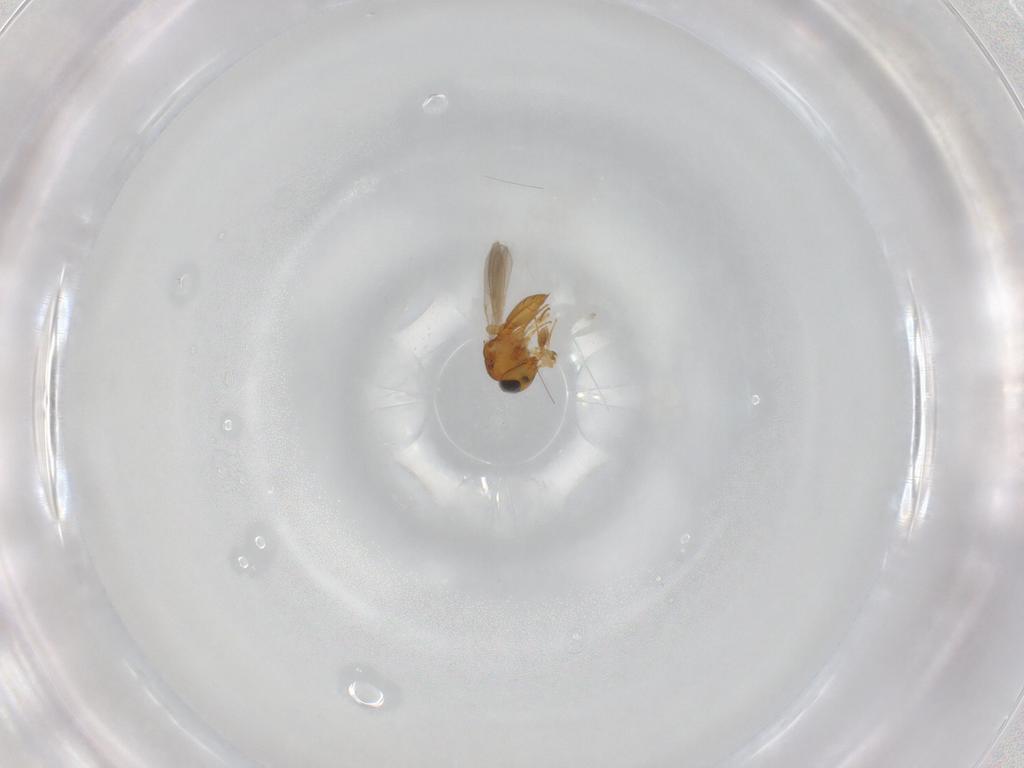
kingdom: Animalia
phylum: Arthropoda
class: Insecta
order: Hymenoptera
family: Scelionidae
